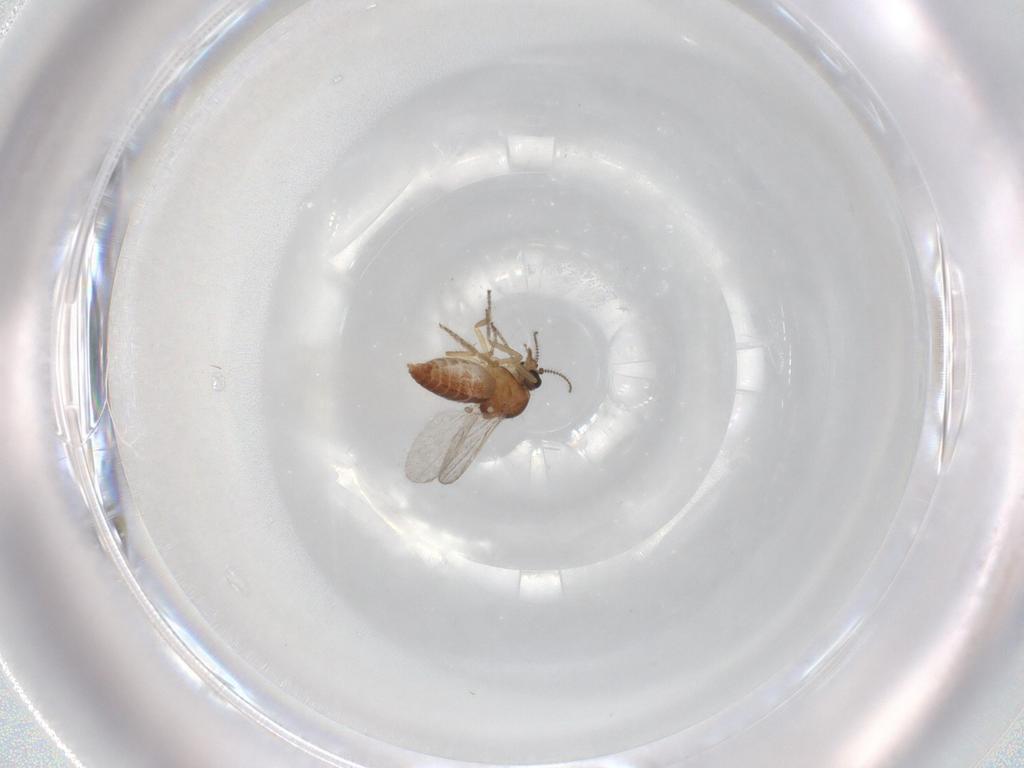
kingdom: Animalia
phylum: Arthropoda
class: Insecta
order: Diptera
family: Ceratopogonidae
